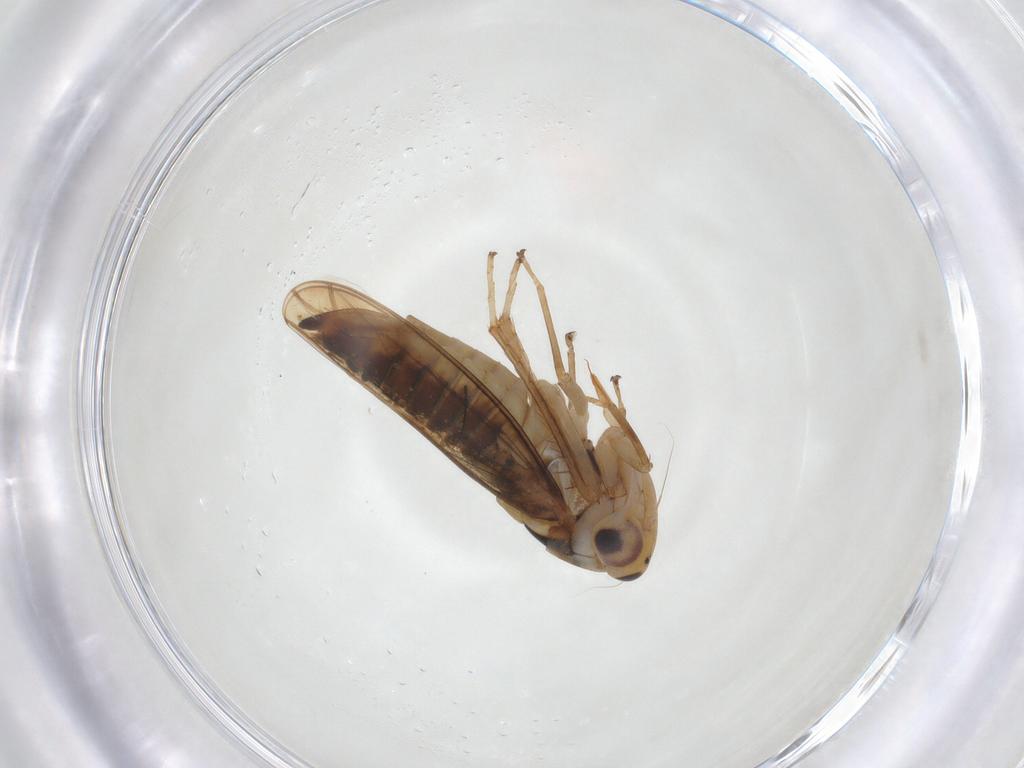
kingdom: Animalia
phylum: Arthropoda
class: Insecta
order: Hemiptera
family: Cicadellidae
